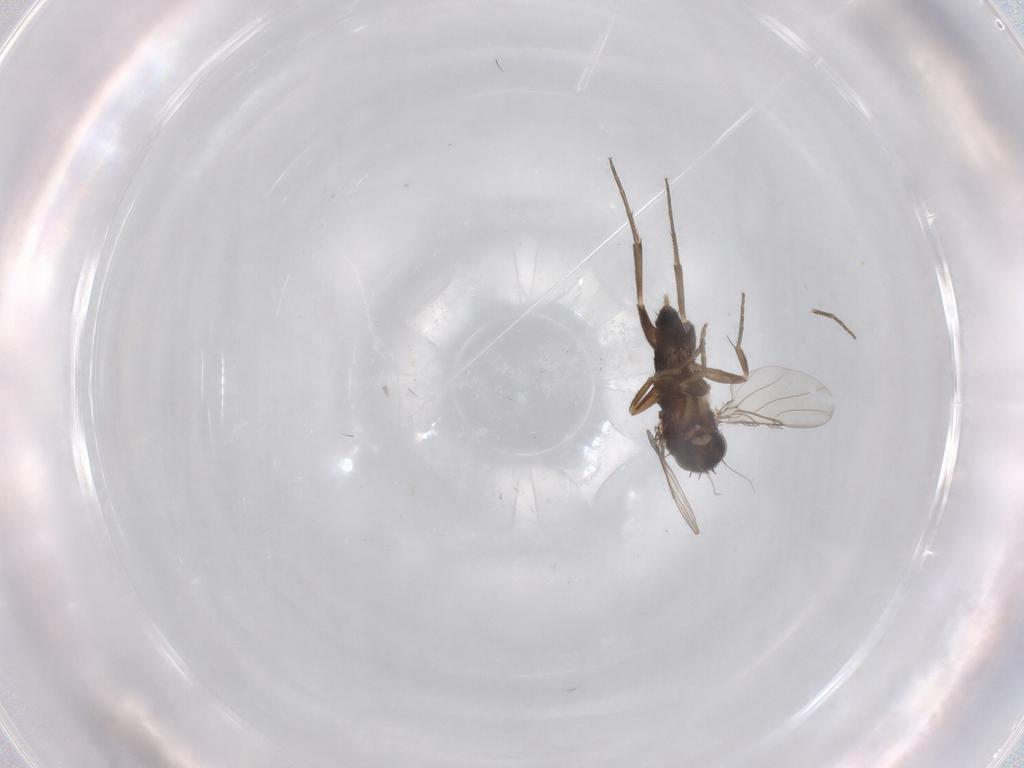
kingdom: Animalia
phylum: Arthropoda
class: Insecta
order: Diptera
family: Phoridae
